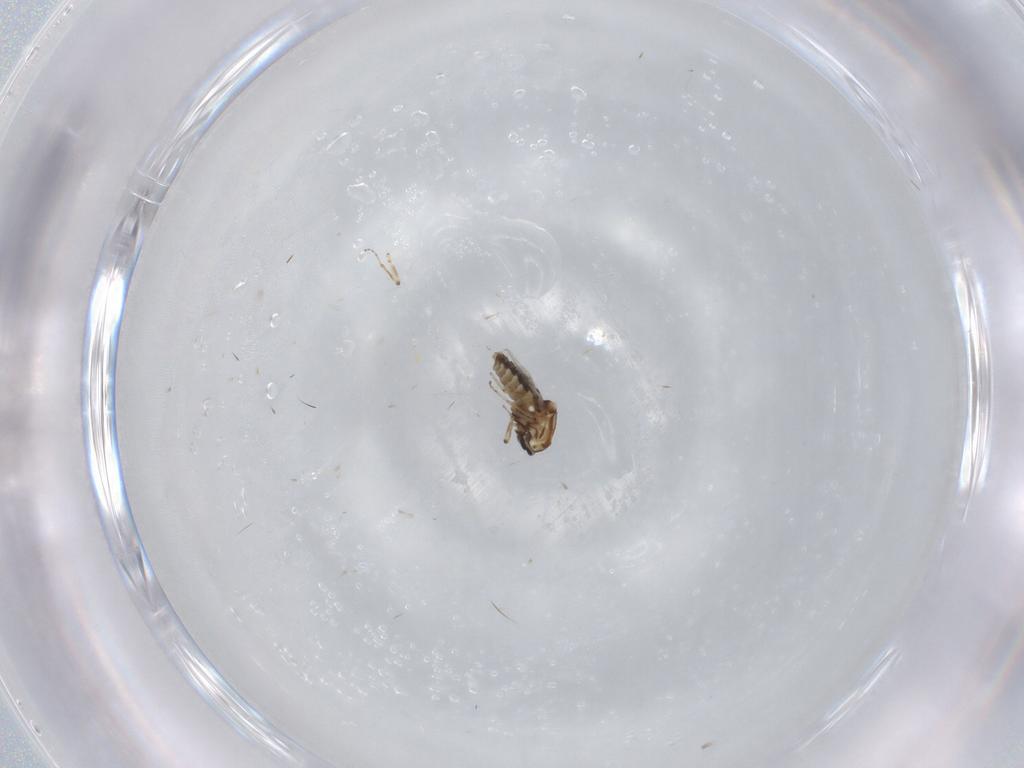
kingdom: Animalia
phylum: Arthropoda
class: Insecta
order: Diptera
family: Ceratopogonidae
